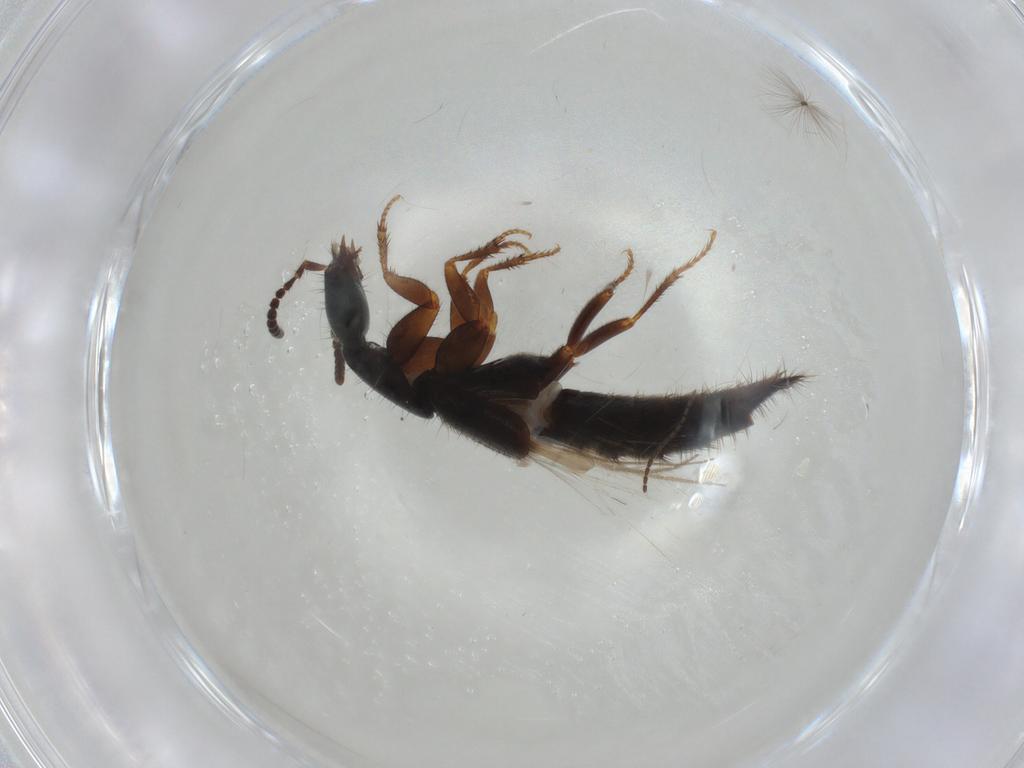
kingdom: Animalia
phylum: Arthropoda
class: Insecta
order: Coleoptera
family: Staphylinidae
